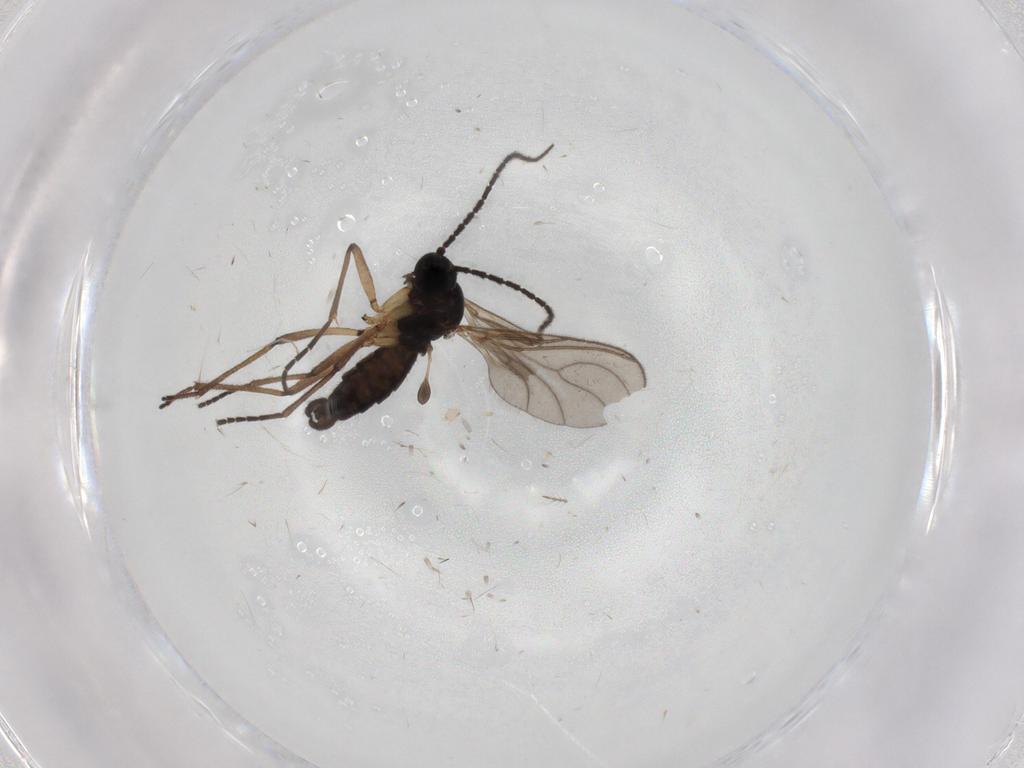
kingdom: Animalia
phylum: Arthropoda
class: Insecta
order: Diptera
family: Sciaridae
